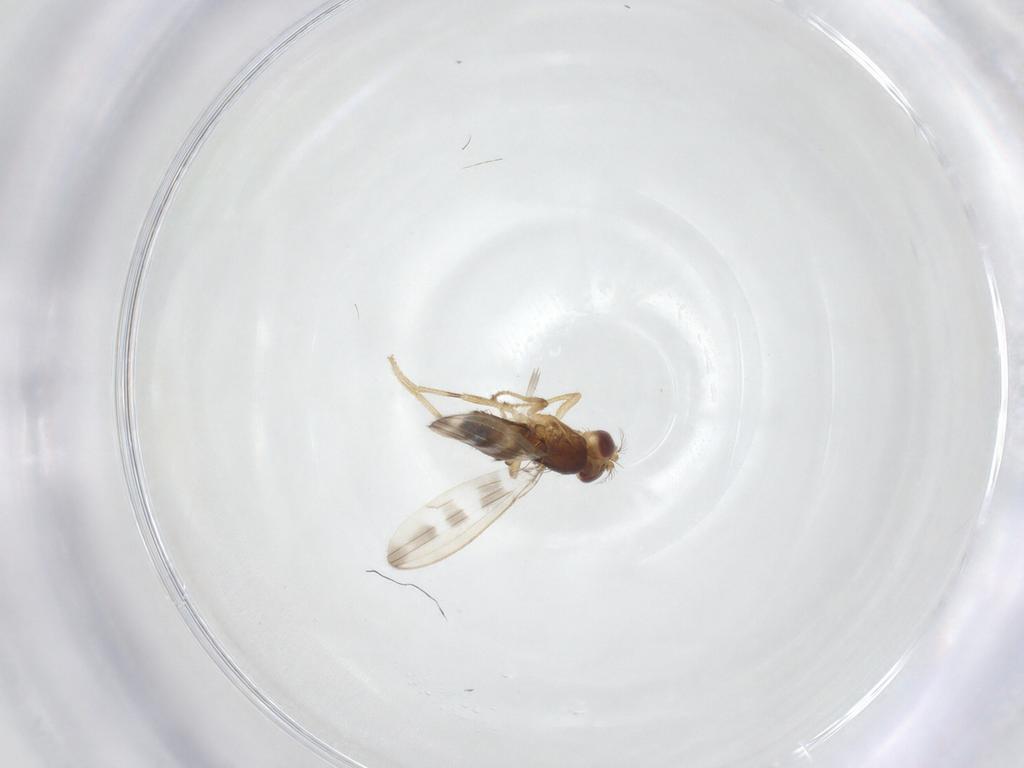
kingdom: Animalia
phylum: Arthropoda
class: Insecta
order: Diptera
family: Periscelididae
